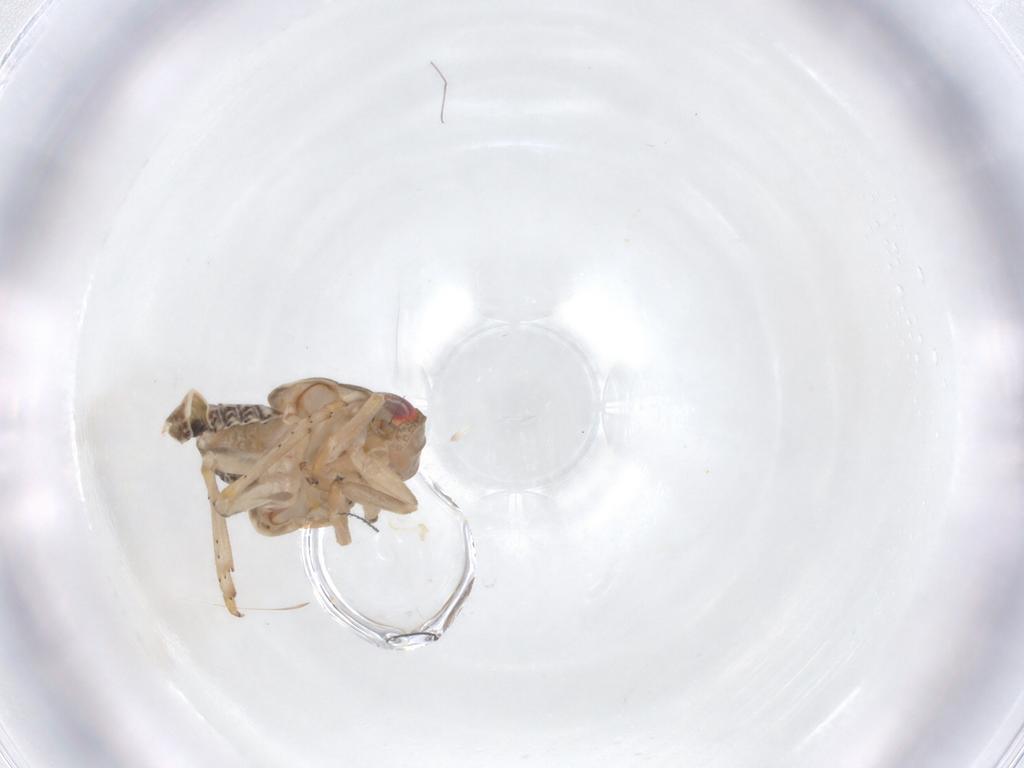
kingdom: Animalia
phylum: Arthropoda
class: Insecta
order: Hemiptera
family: Issidae
